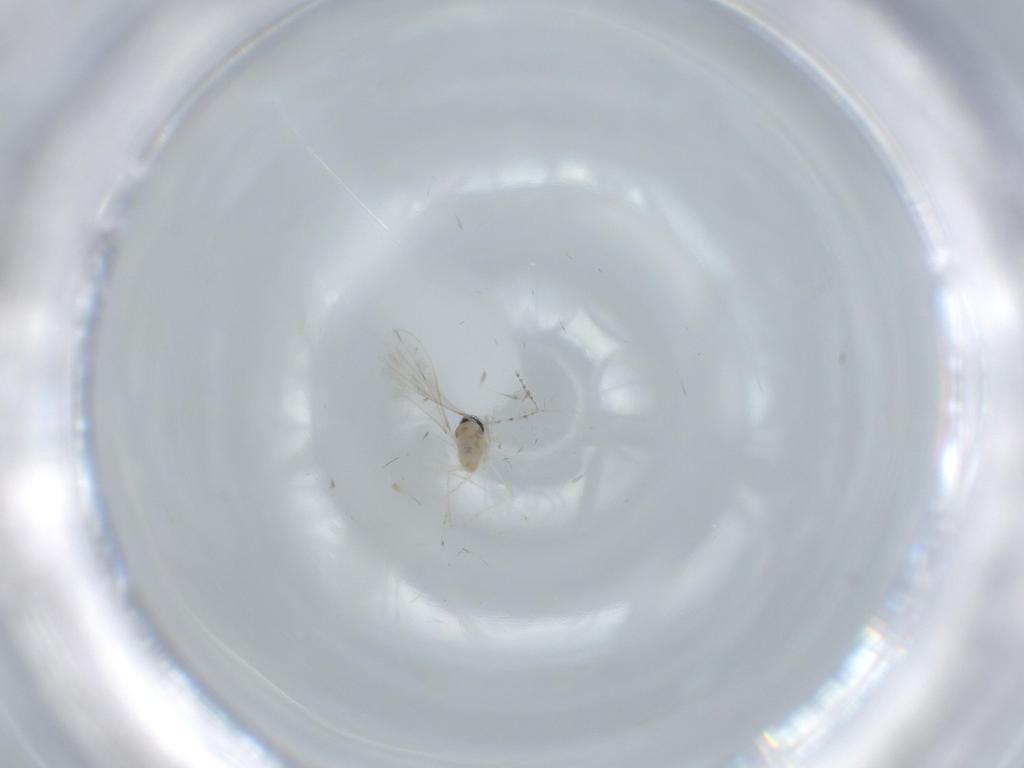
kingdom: Animalia
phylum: Arthropoda
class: Insecta
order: Diptera
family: Cecidomyiidae
